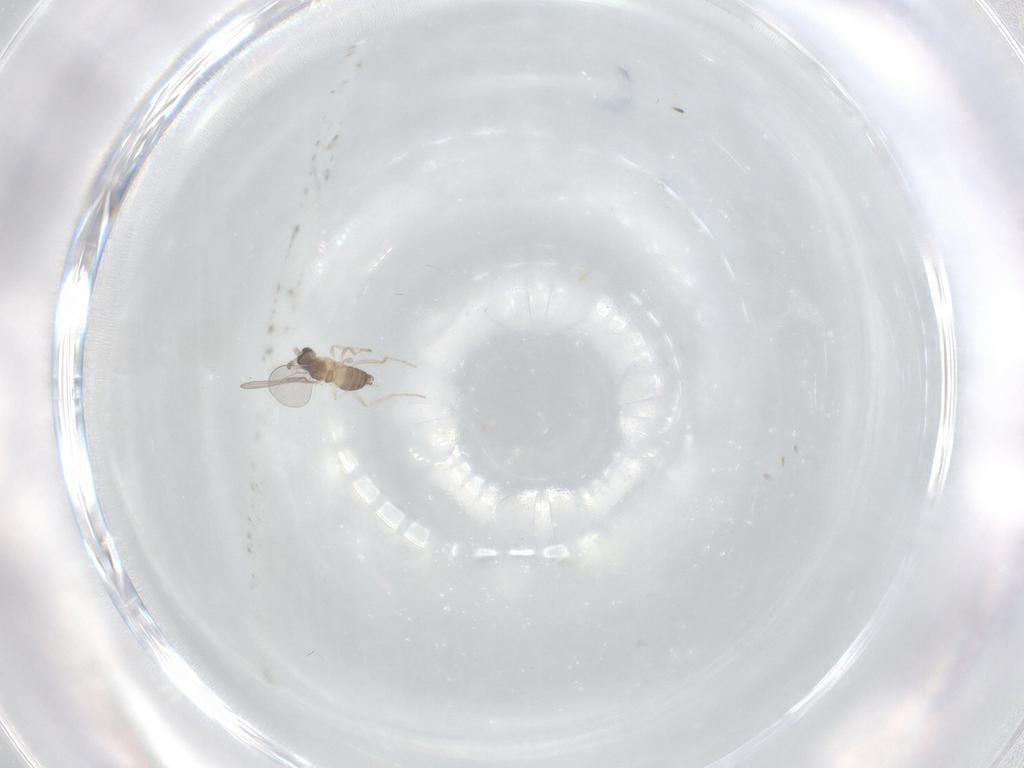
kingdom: Animalia
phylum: Arthropoda
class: Insecta
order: Diptera
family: Cecidomyiidae
